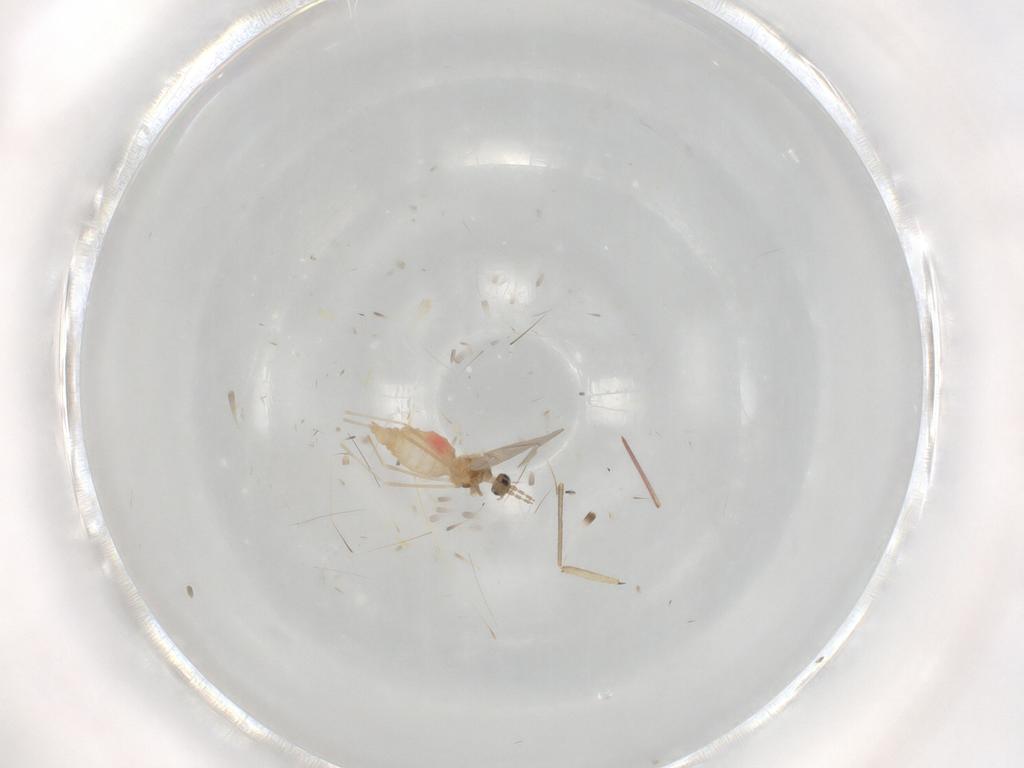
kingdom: Animalia
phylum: Arthropoda
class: Insecta
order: Diptera
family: Cecidomyiidae
